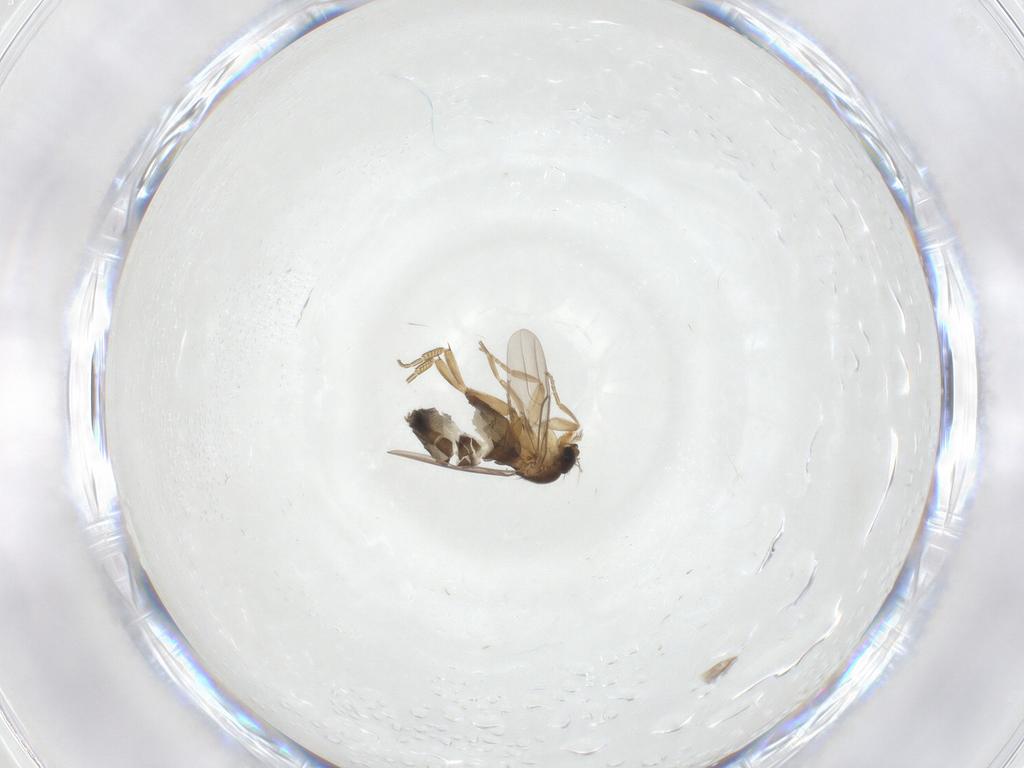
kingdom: Animalia
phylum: Arthropoda
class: Insecta
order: Diptera
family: Phoridae
